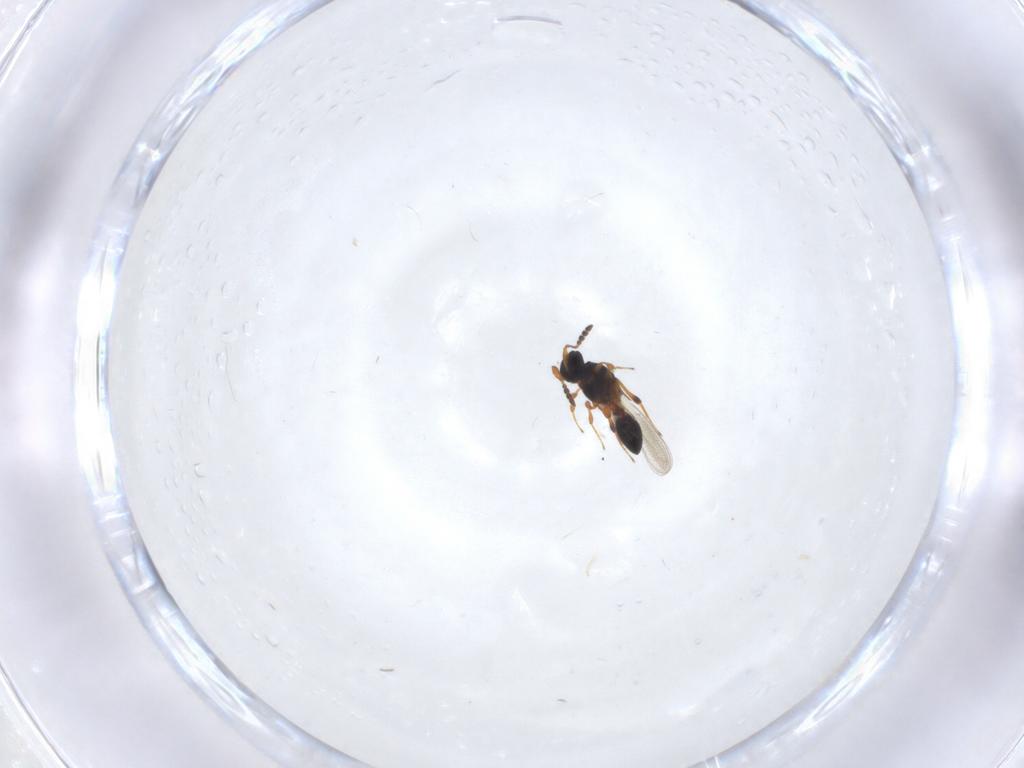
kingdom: Animalia
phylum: Arthropoda
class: Insecta
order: Hymenoptera
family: Platygastridae
